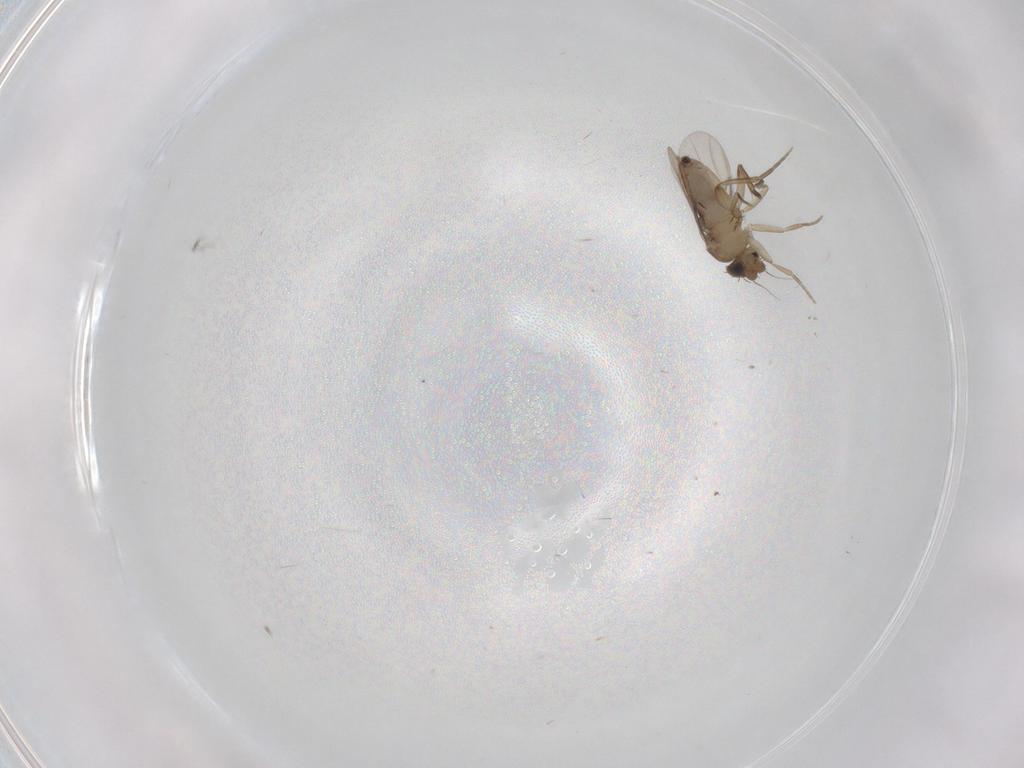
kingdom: Animalia
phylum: Arthropoda
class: Insecta
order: Diptera
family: Phoridae
